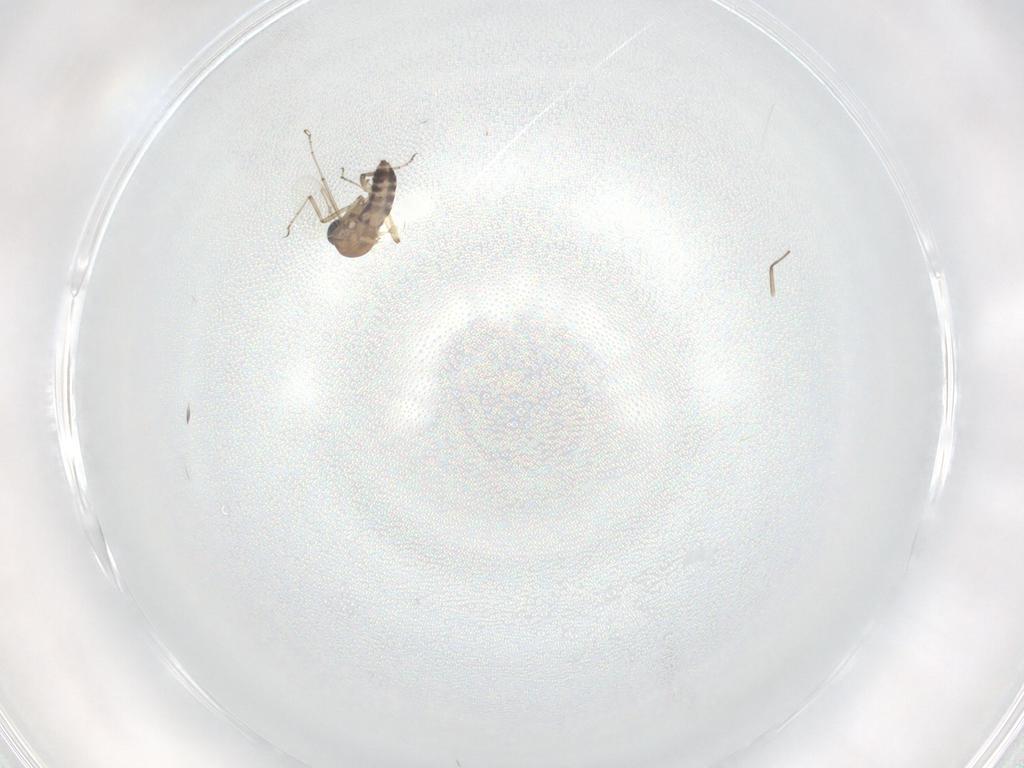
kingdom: Animalia
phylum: Arthropoda
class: Insecta
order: Diptera
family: Ceratopogonidae
